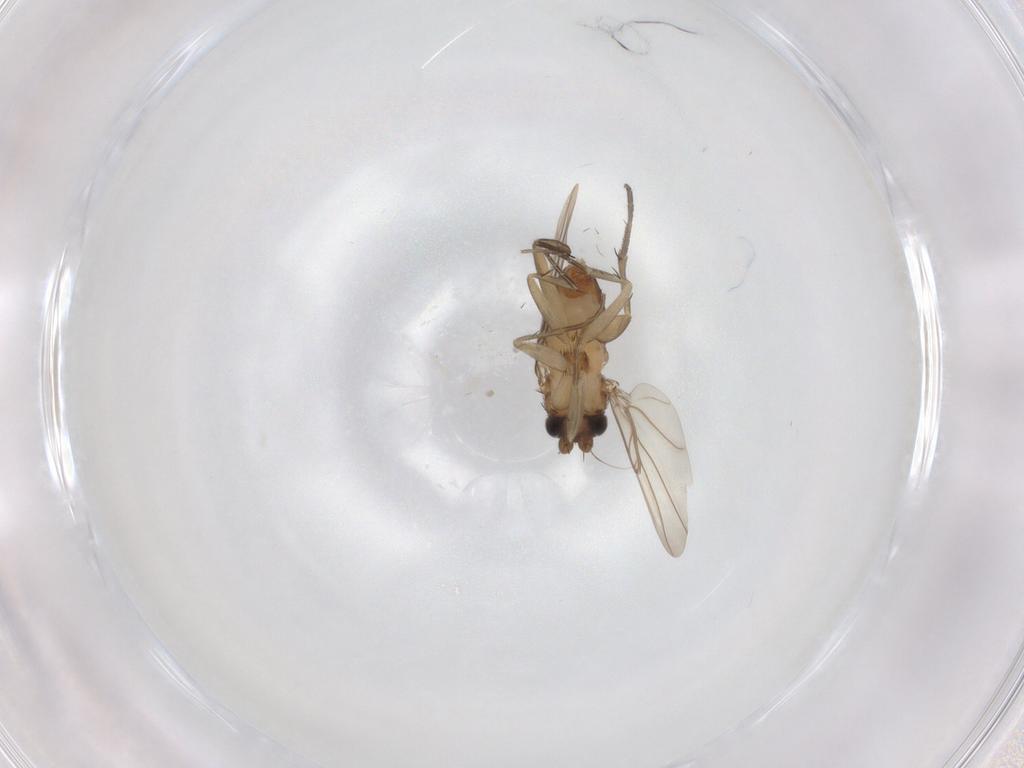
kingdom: Animalia
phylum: Arthropoda
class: Insecta
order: Diptera
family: Phoridae
